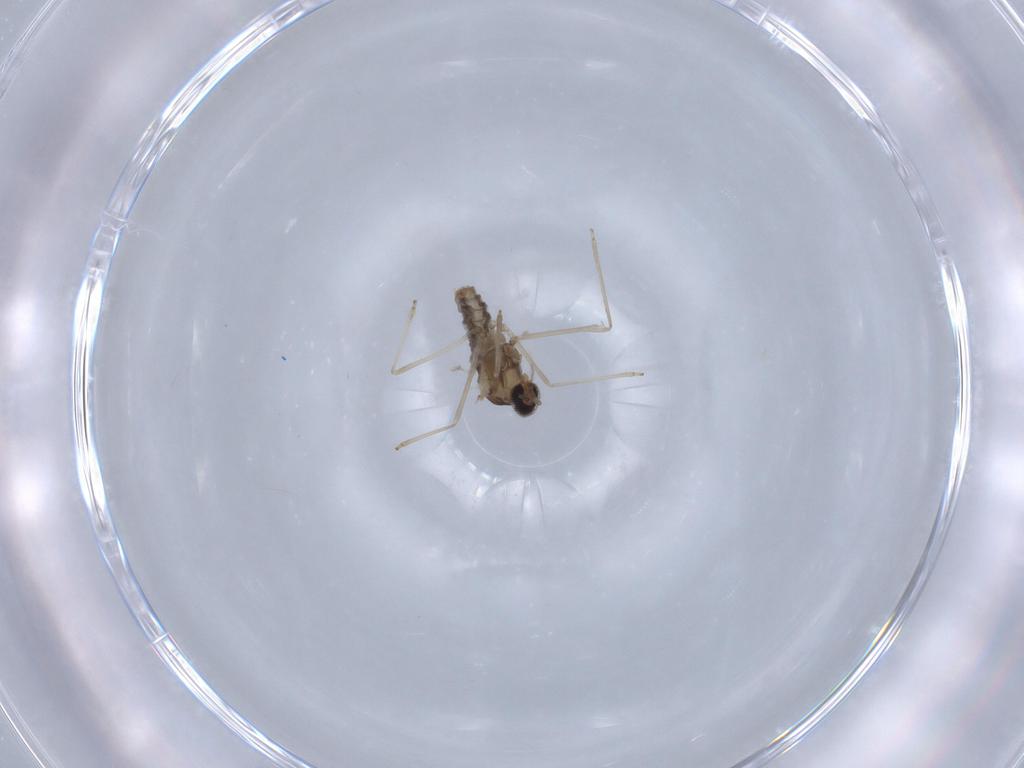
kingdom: Animalia
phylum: Arthropoda
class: Insecta
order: Diptera
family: Cecidomyiidae
